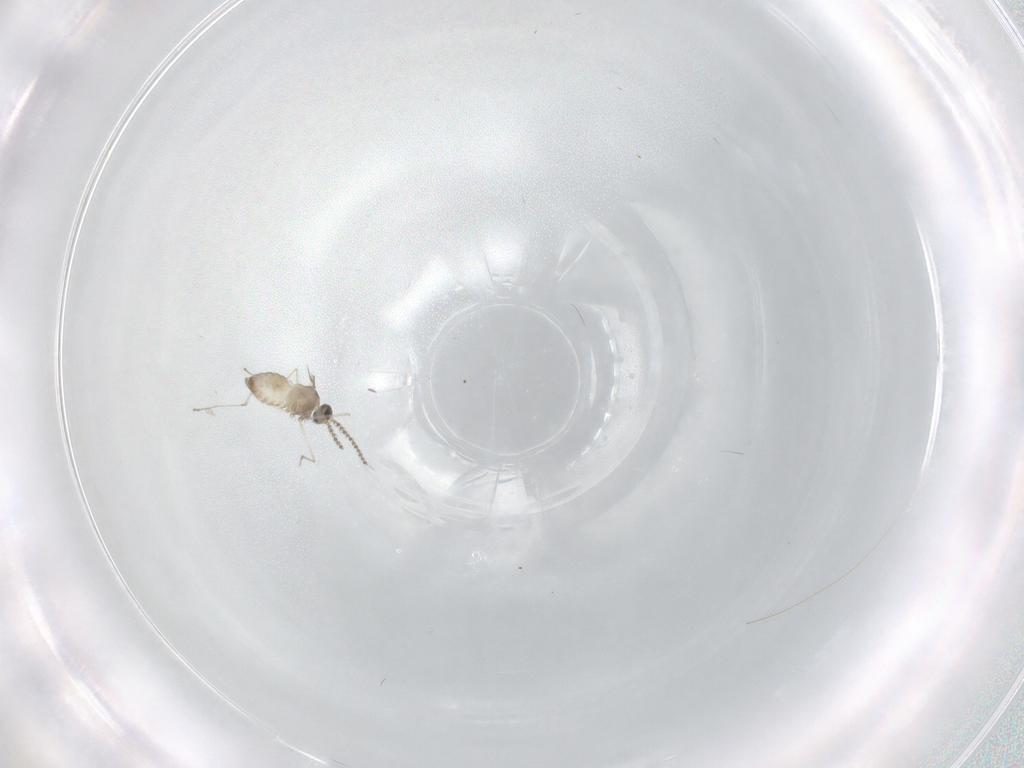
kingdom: Animalia
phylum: Arthropoda
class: Insecta
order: Diptera
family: Cecidomyiidae
